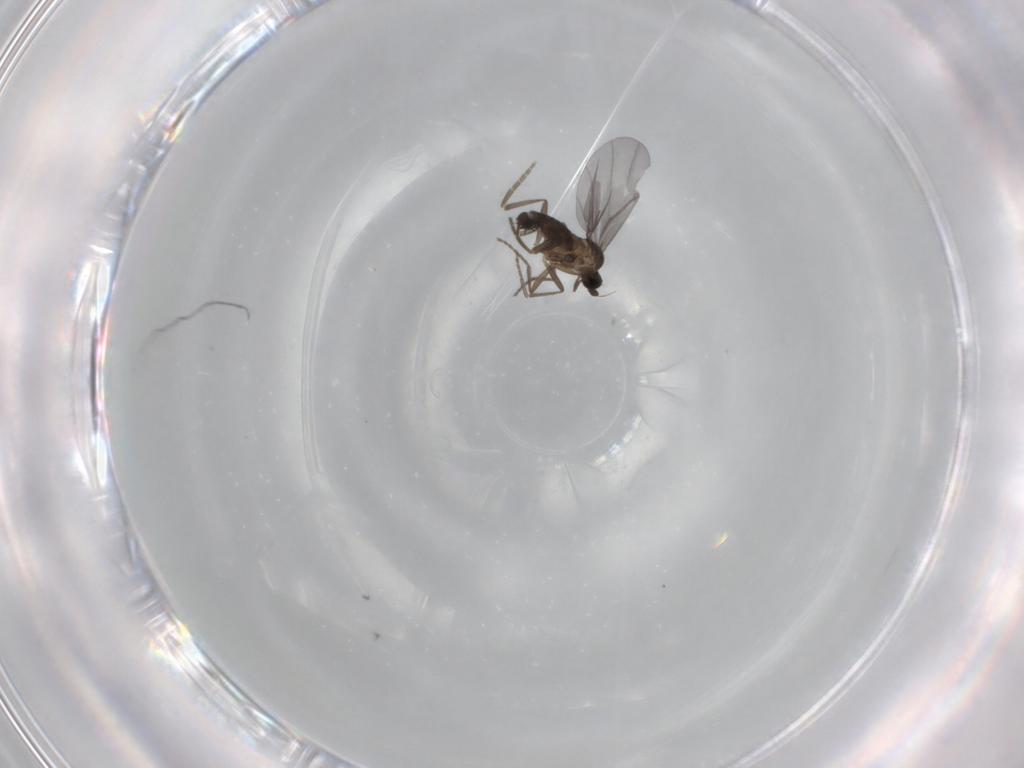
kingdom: Animalia
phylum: Arthropoda
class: Insecta
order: Diptera
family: Phoridae
